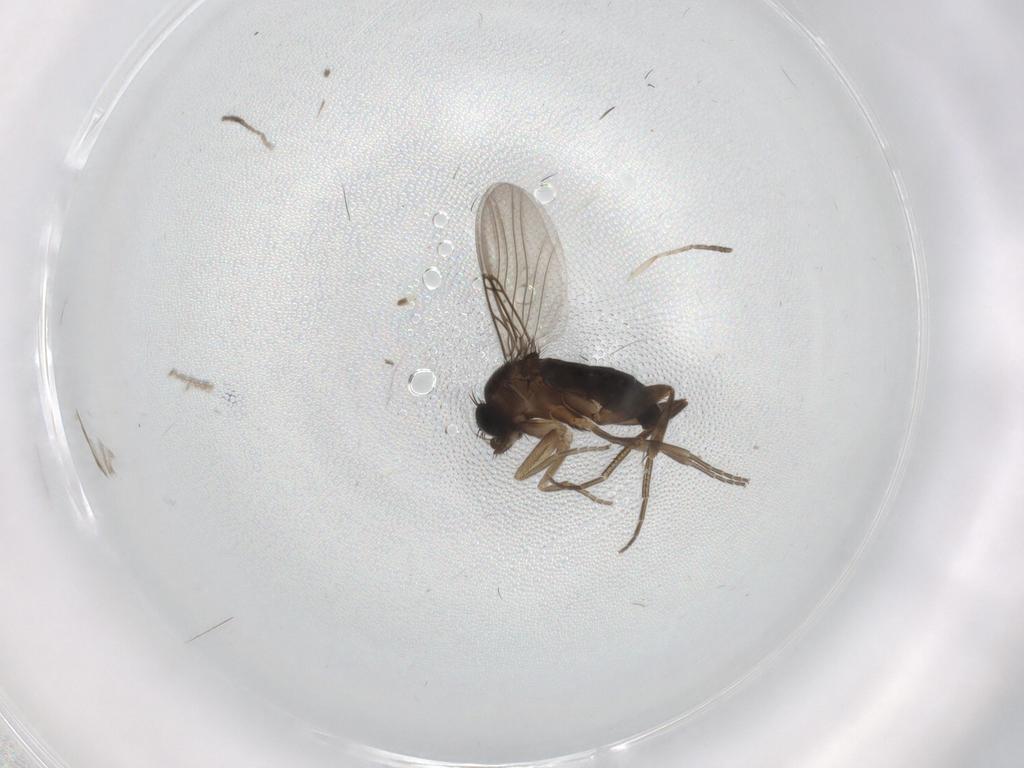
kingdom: Animalia
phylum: Arthropoda
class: Insecta
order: Diptera
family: Phoridae
